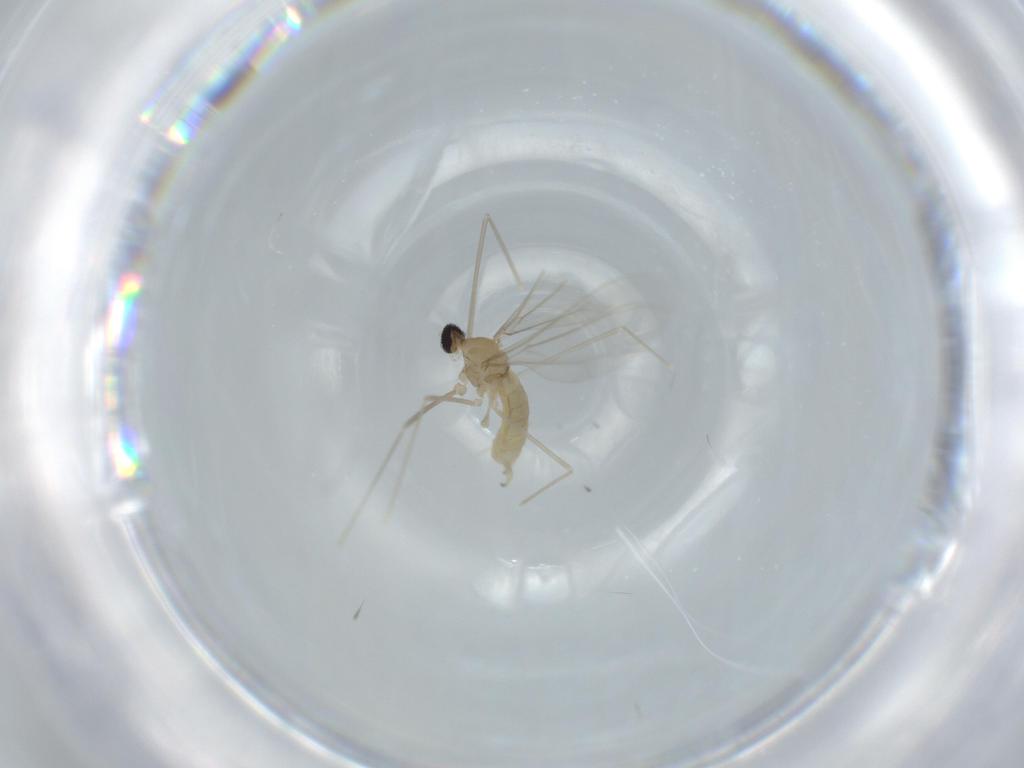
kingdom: Animalia
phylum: Arthropoda
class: Insecta
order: Diptera
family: Cecidomyiidae
